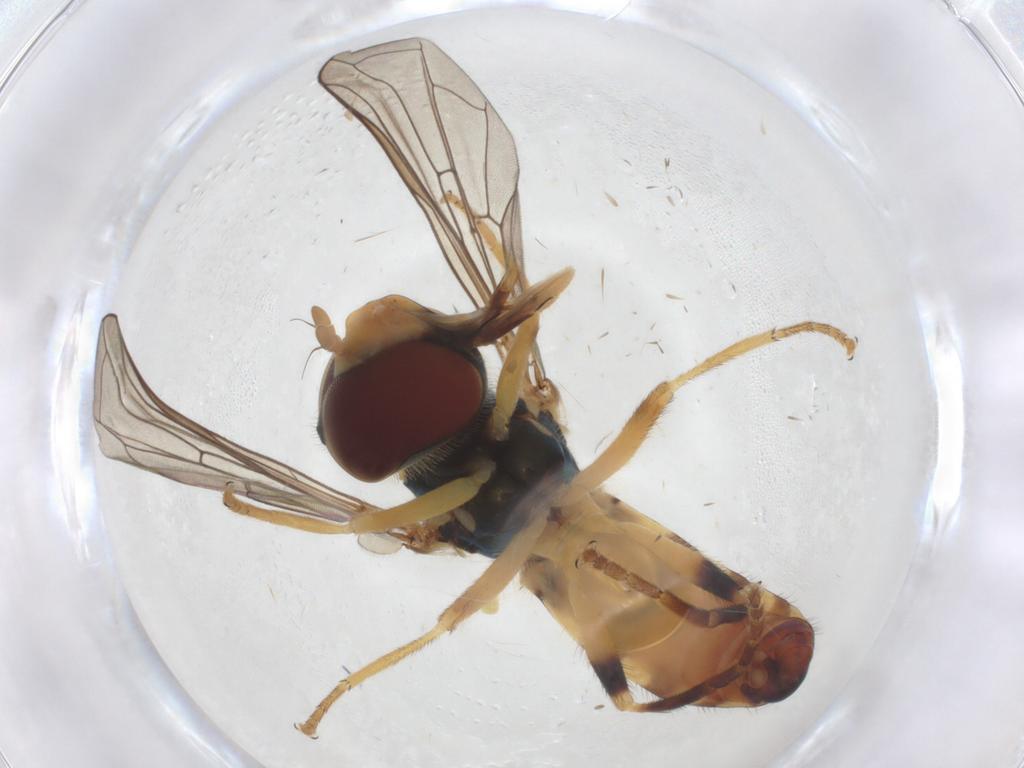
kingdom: Animalia
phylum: Arthropoda
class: Insecta
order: Diptera
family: Syrphidae
